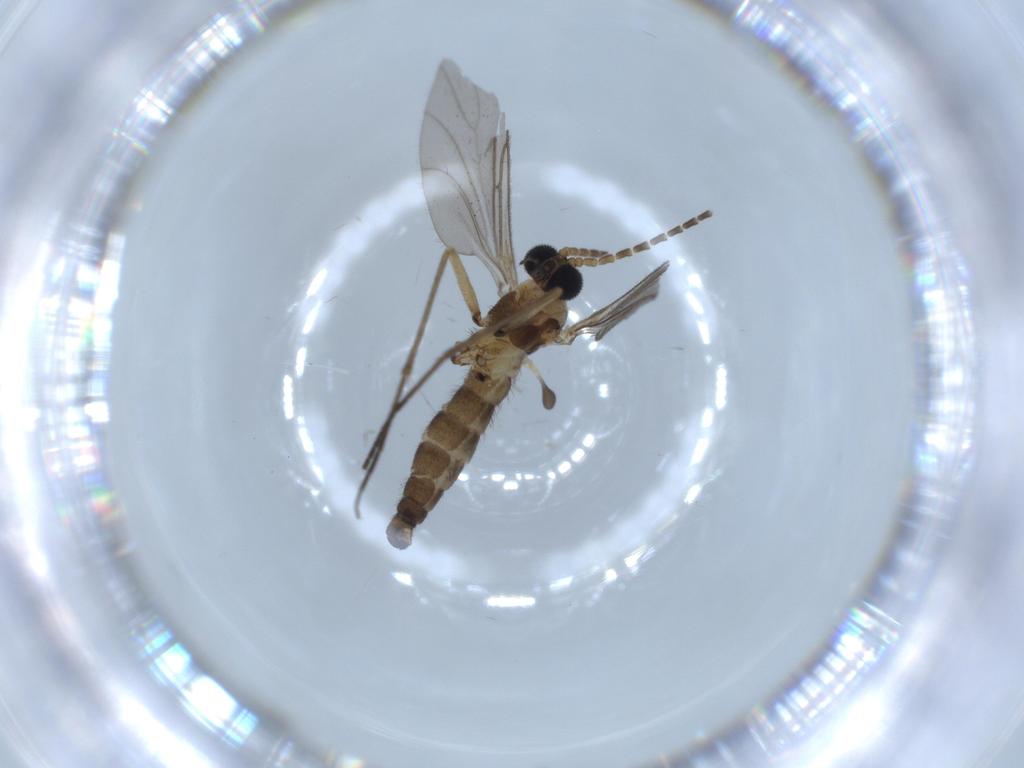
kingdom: Animalia
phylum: Arthropoda
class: Insecta
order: Diptera
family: Sciaridae
